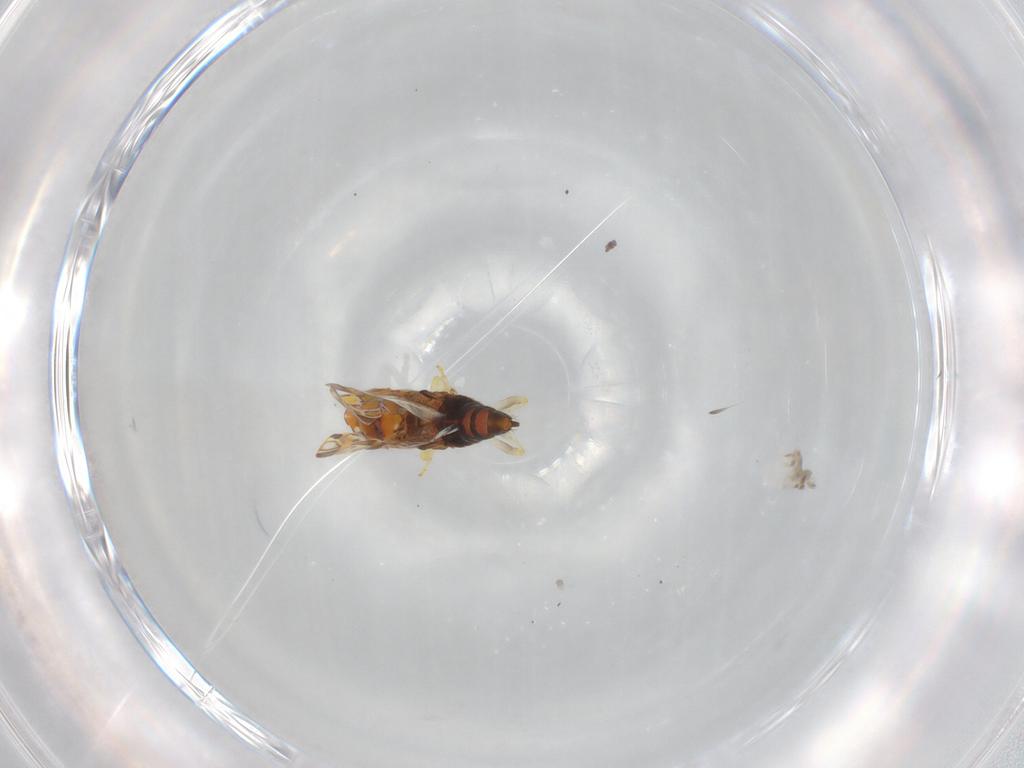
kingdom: Animalia
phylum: Arthropoda
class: Insecta
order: Hemiptera
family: Cicadellidae
